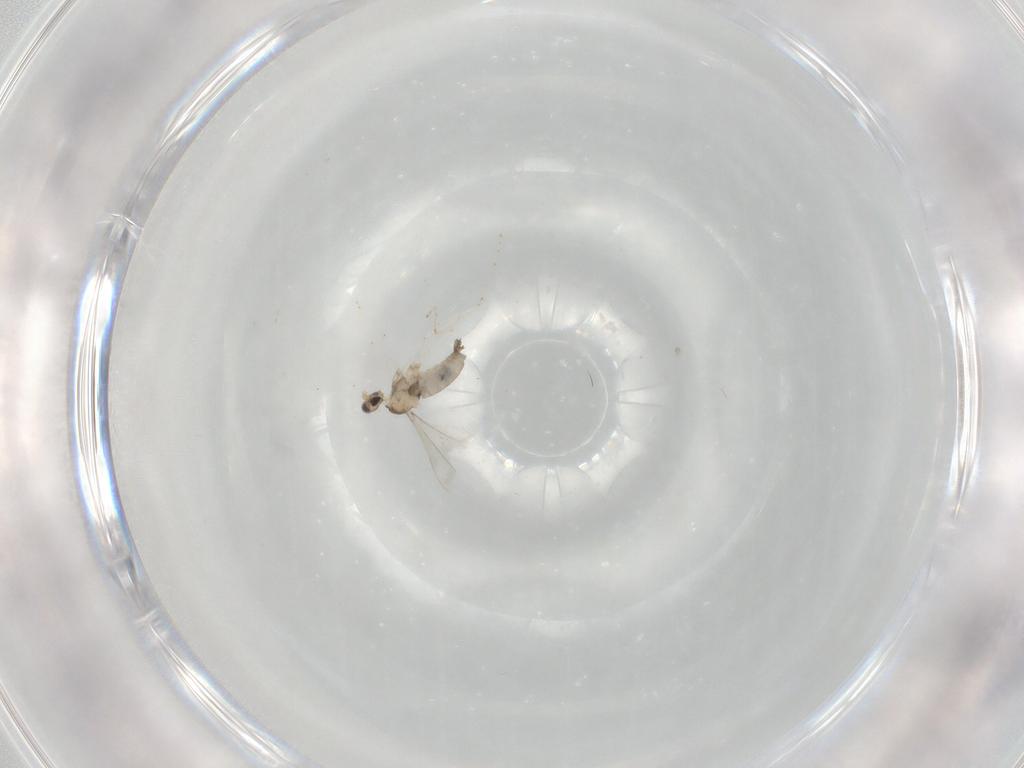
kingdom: Animalia
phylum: Arthropoda
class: Insecta
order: Diptera
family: Cecidomyiidae
